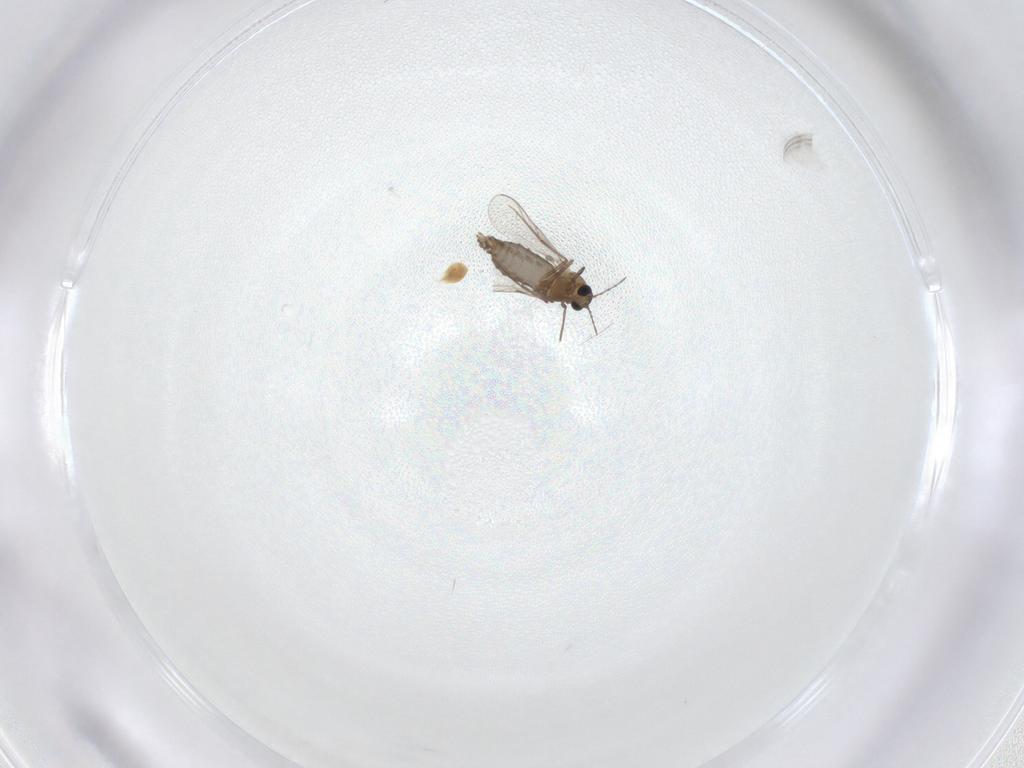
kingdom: Animalia
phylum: Arthropoda
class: Insecta
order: Diptera
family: Chironomidae
